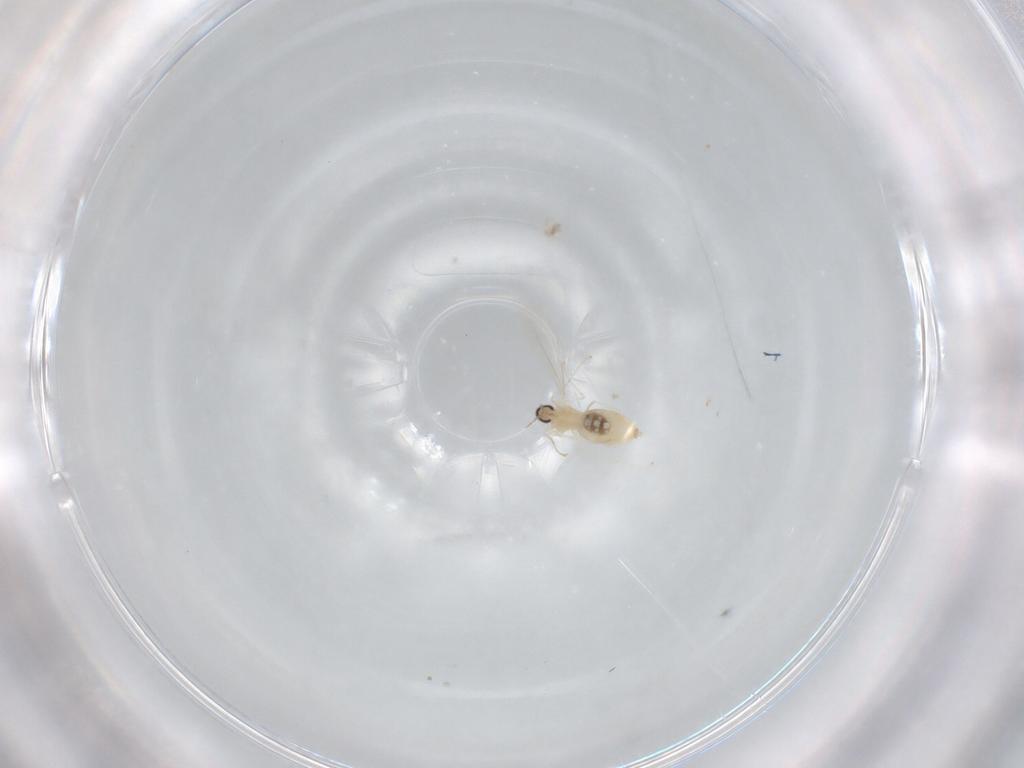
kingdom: Animalia
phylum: Arthropoda
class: Insecta
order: Diptera
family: Cecidomyiidae
